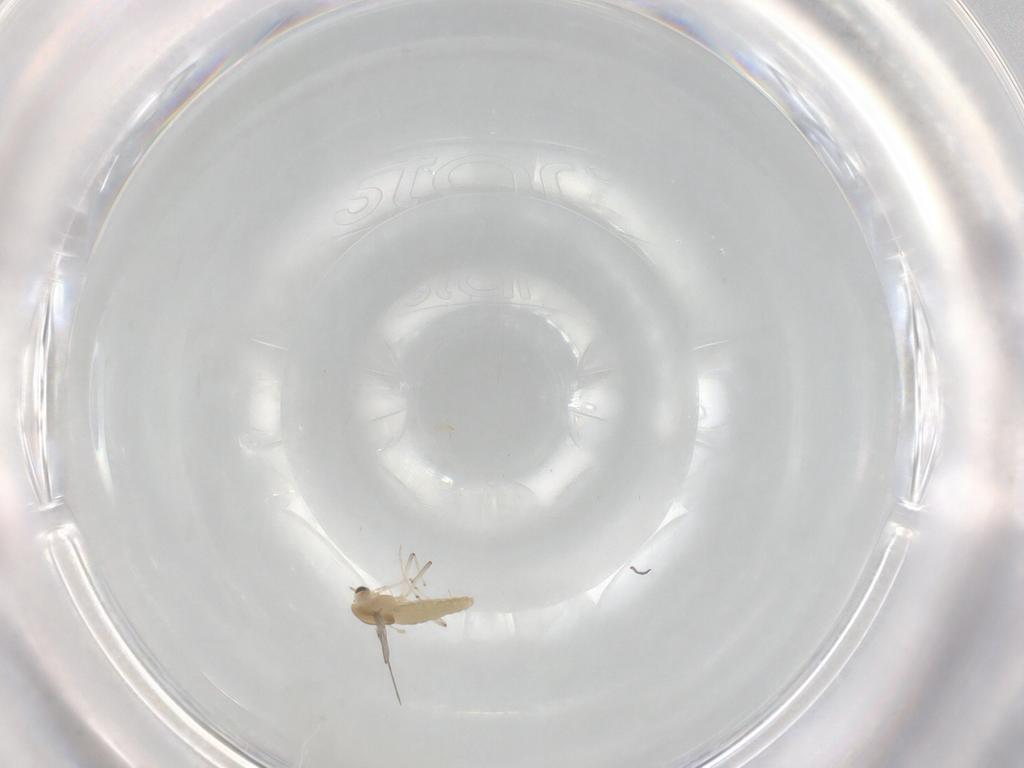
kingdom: Animalia
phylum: Arthropoda
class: Insecta
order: Diptera
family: Chironomidae
